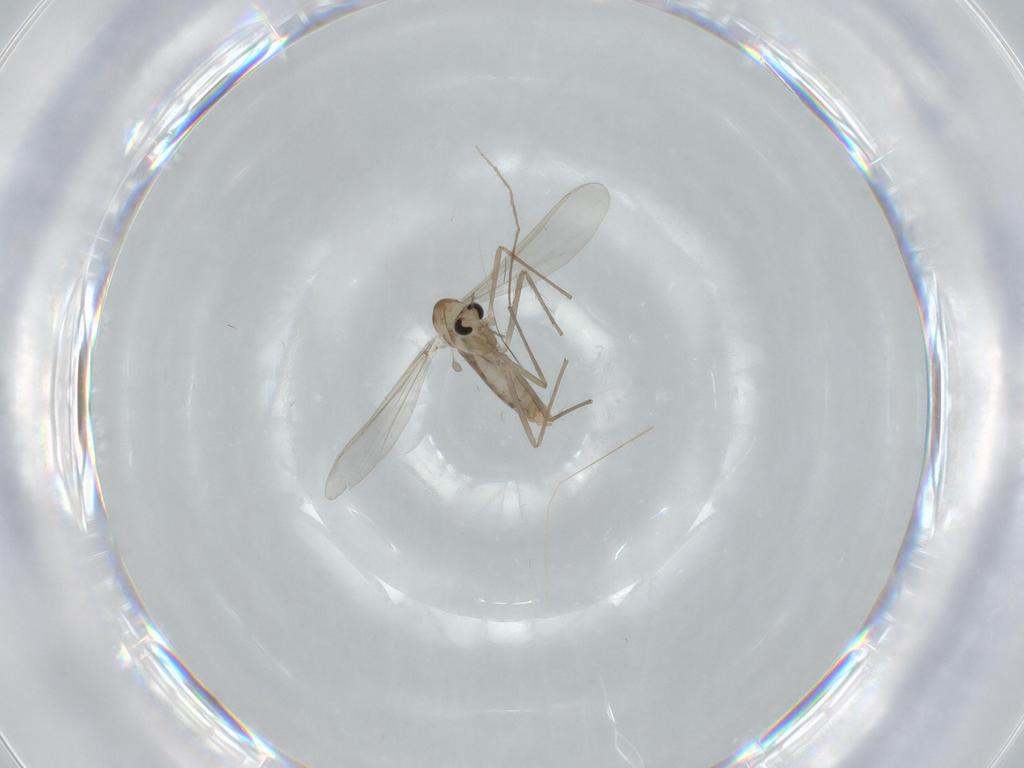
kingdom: Animalia
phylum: Arthropoda
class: Insecta
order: Diptera
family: Chironomidae
